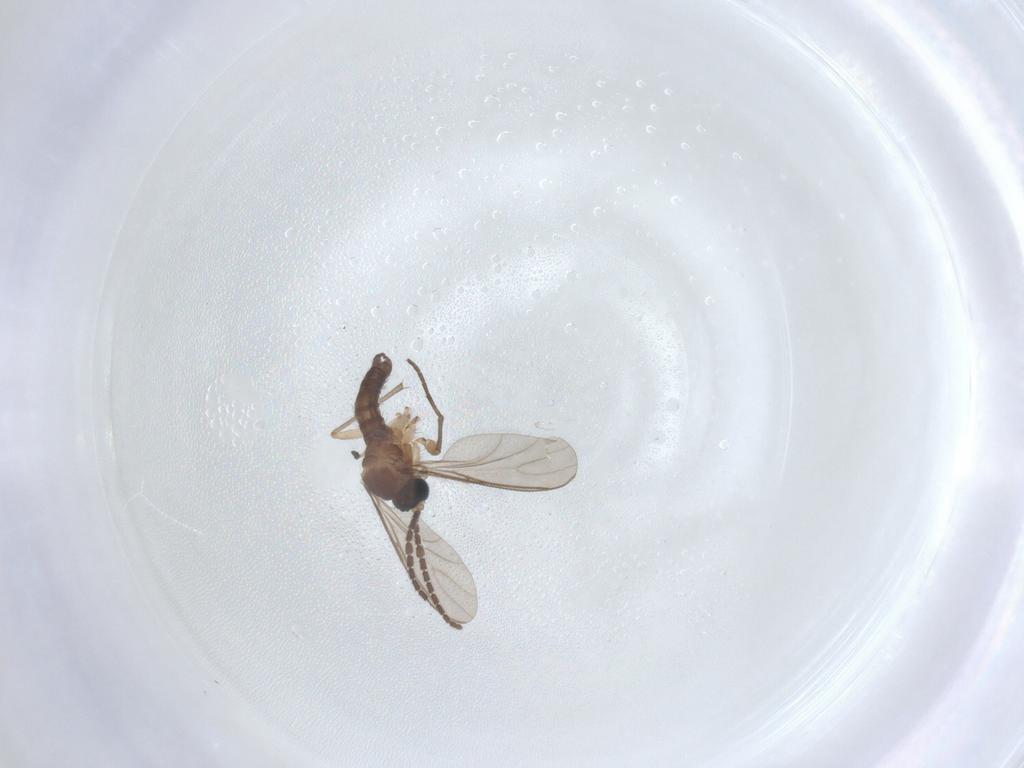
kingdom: Animalia
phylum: Arthropoda
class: Insecta
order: Diptera
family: Sciaridae
